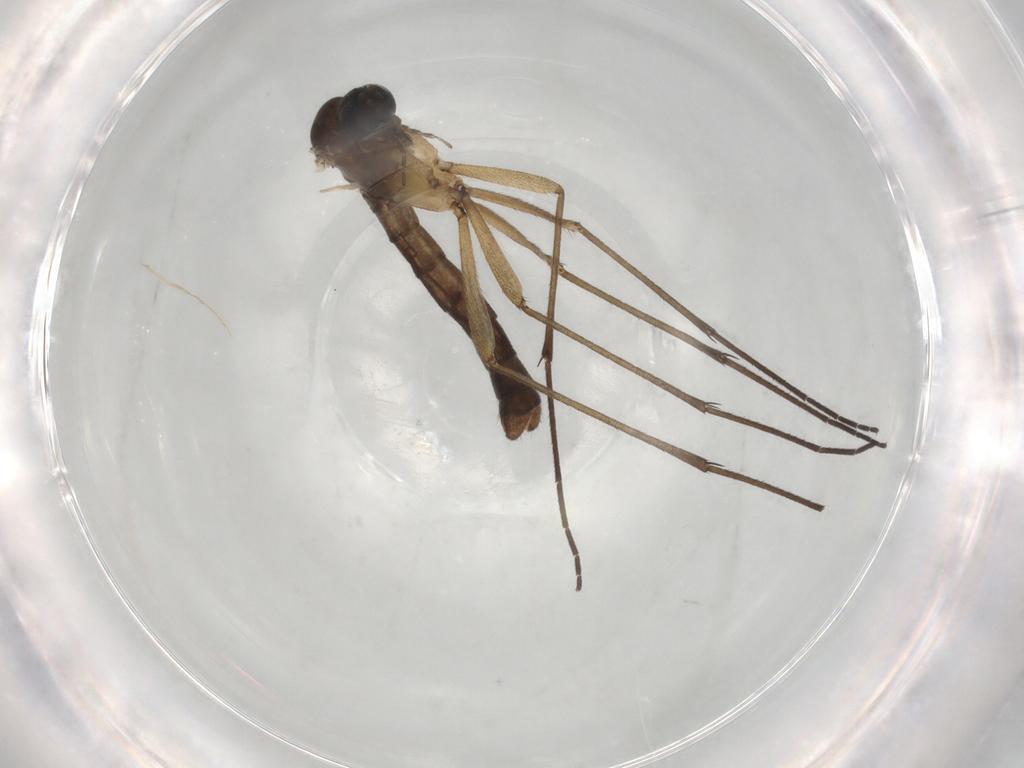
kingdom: Animalia
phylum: Arthropoda
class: Insecta
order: Diptera
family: Phoridae
